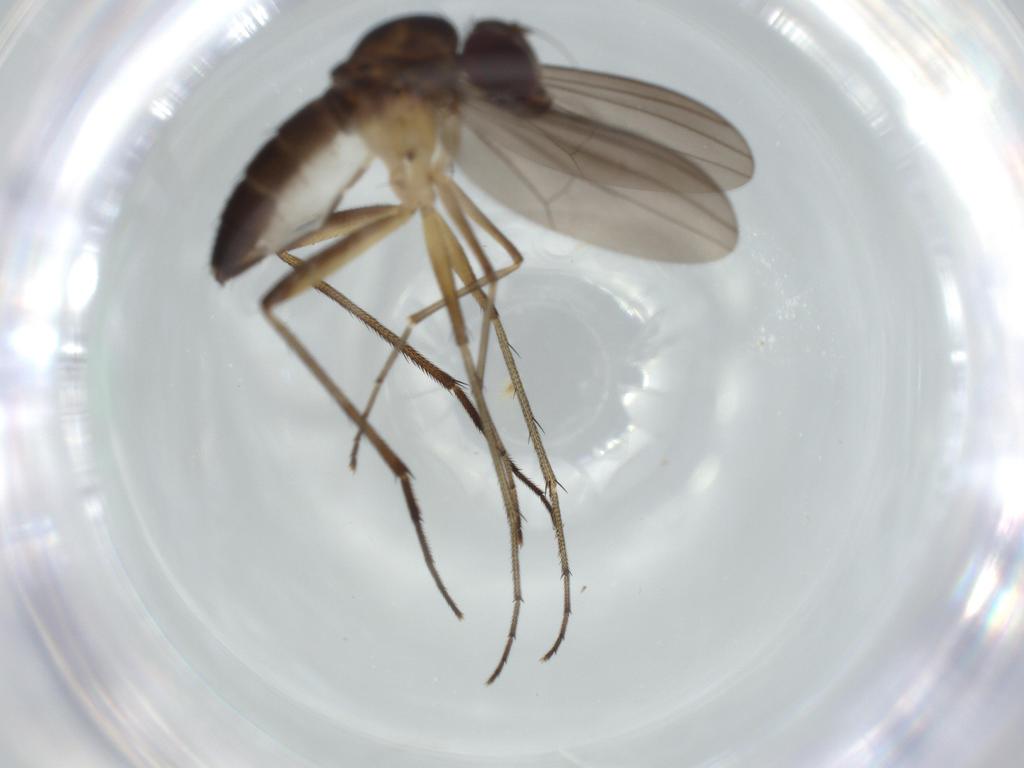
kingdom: Animalia
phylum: Arthropoda
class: Insecta
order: Diptera
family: Dolichopodidae
